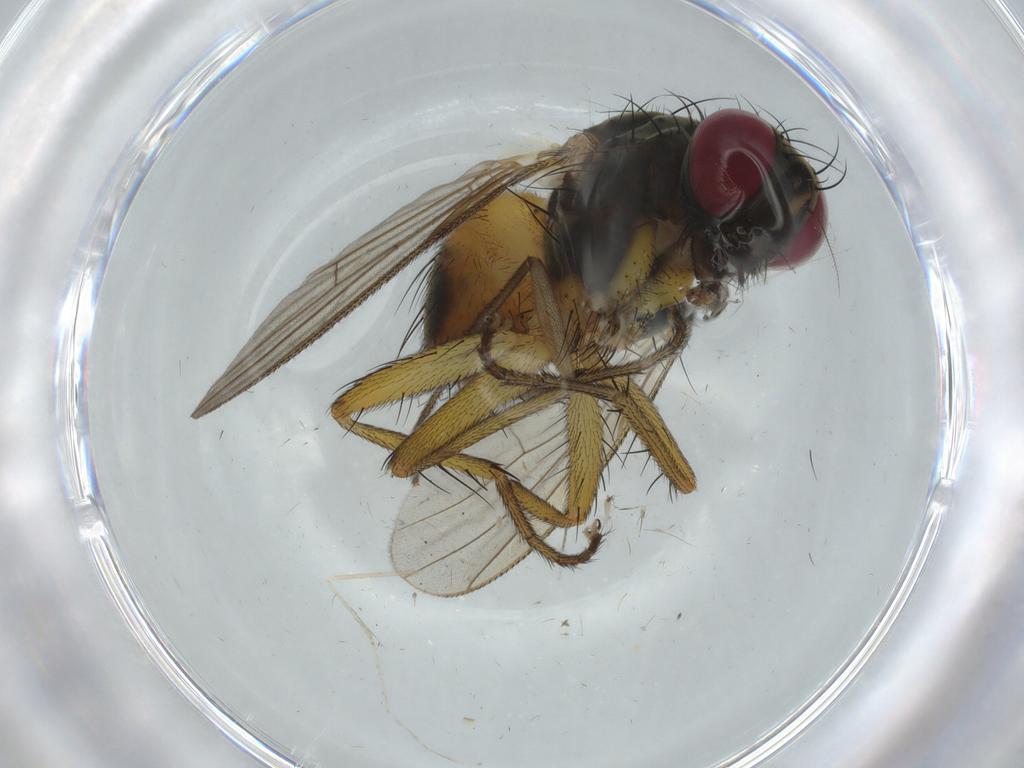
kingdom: Animalia
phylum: Arthropoda
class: Insecta
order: Diptera
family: Muscidae
